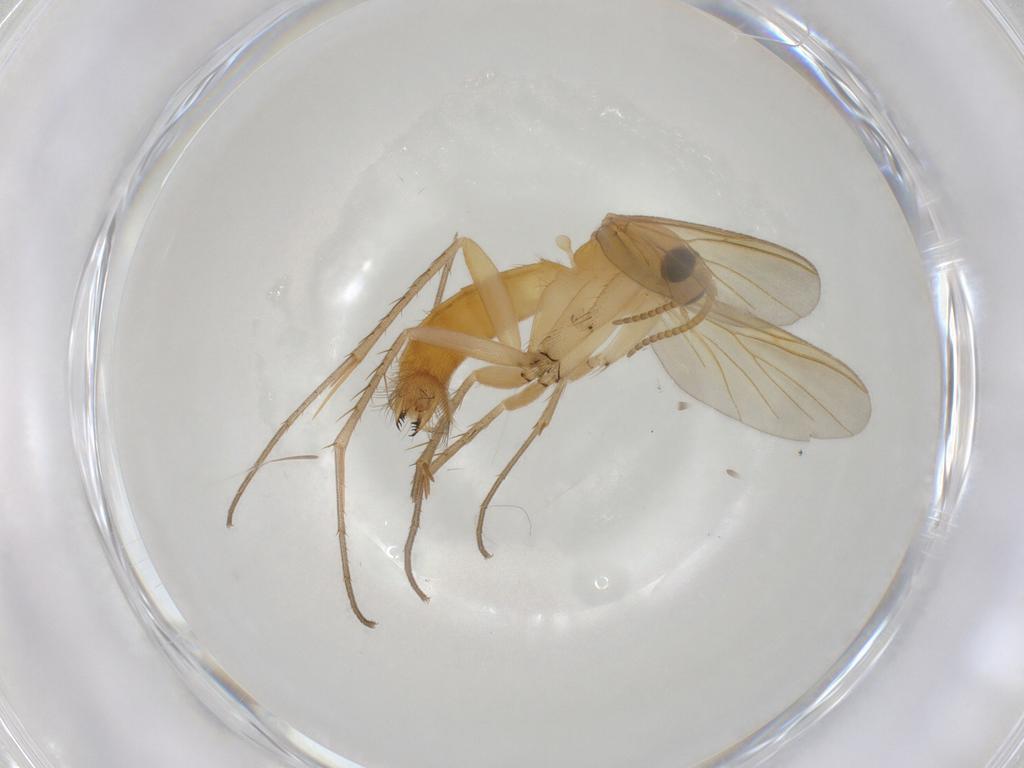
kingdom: Animalia
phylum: Arthropoda
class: Insecta
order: Diptera
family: Mycetophilidae
